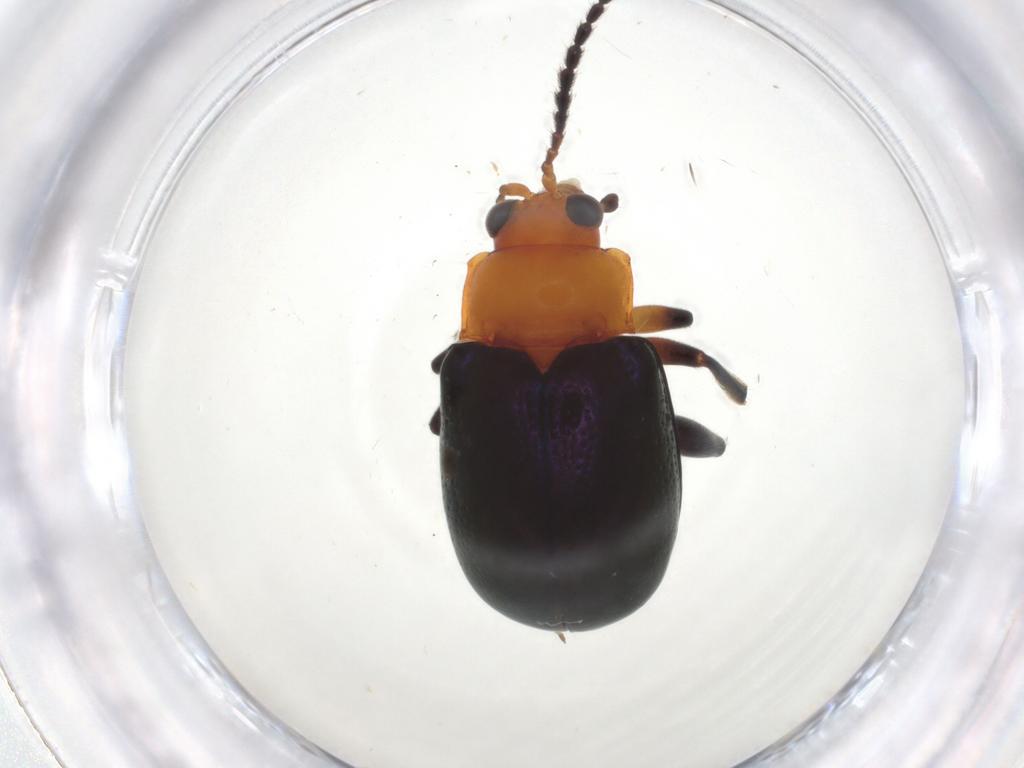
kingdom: Animalia
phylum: Arthropoda
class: Insecta
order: Coleoptera
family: Chrysomelidae
